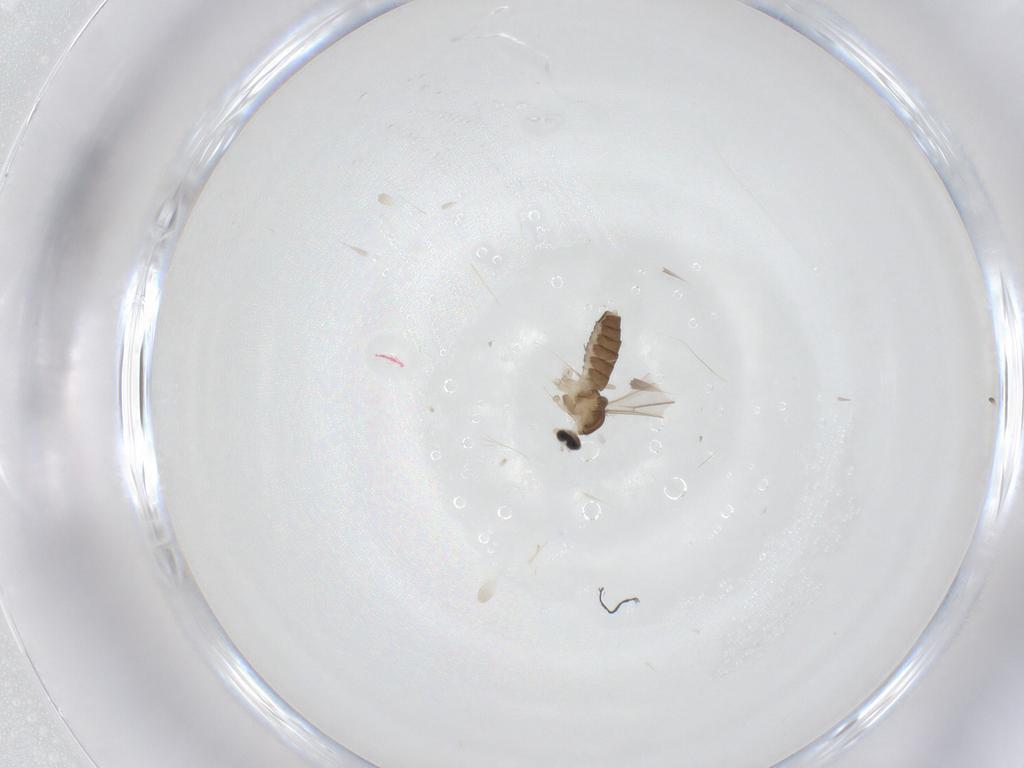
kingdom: Animalia
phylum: Arthropoda
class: Insecta
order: Diptera
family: Cecidomyiidae
